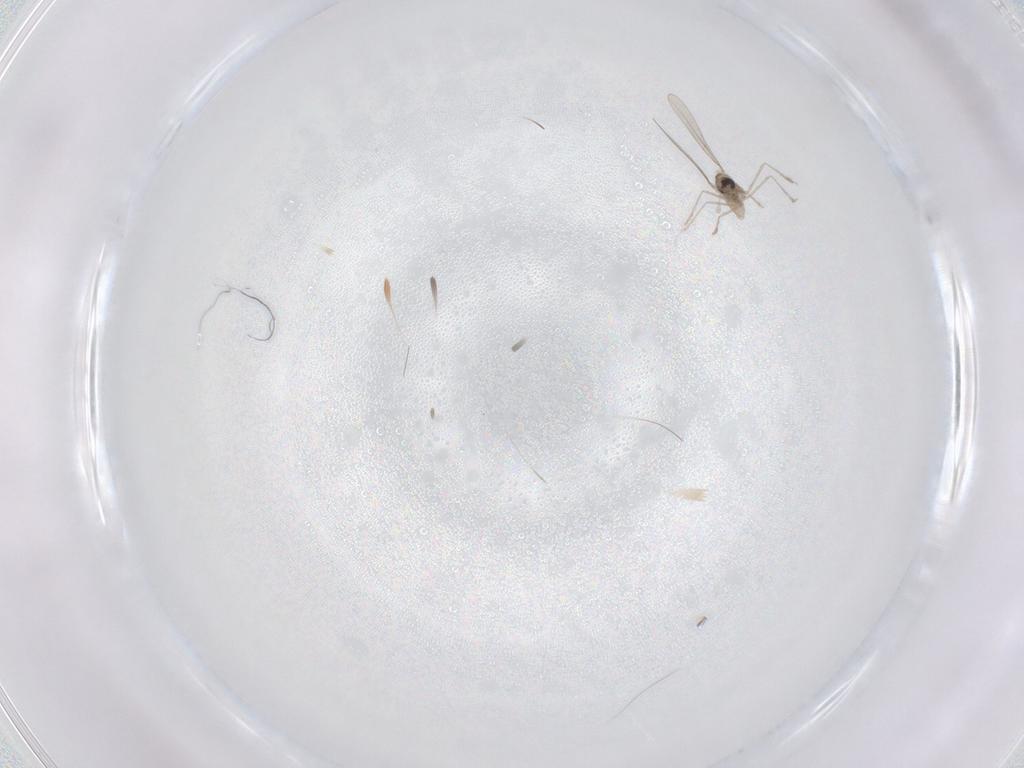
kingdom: Animalia
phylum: Arthropoda
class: Insecta
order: Diptera
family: Cecidomyiidae
